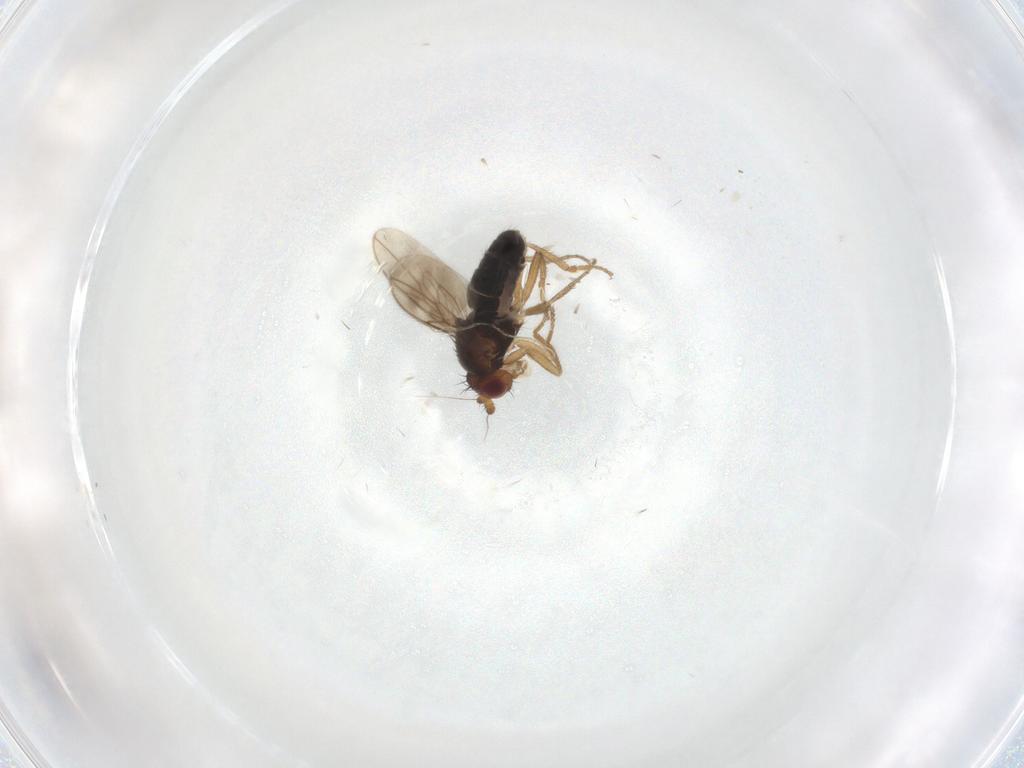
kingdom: Animalia
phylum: Arthropoda
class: Insecta
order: Diptera
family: Sphaeroceridae
